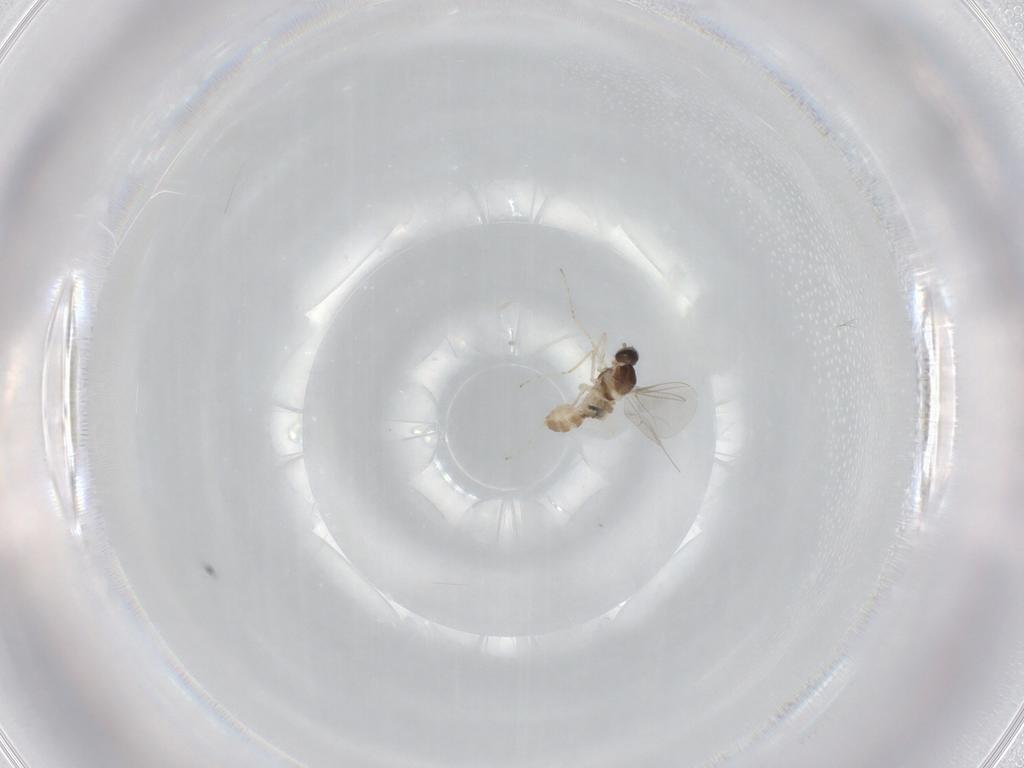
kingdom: Animalia
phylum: Arthropoda
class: Insecta
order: Diptera
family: Cecidomyiidae
